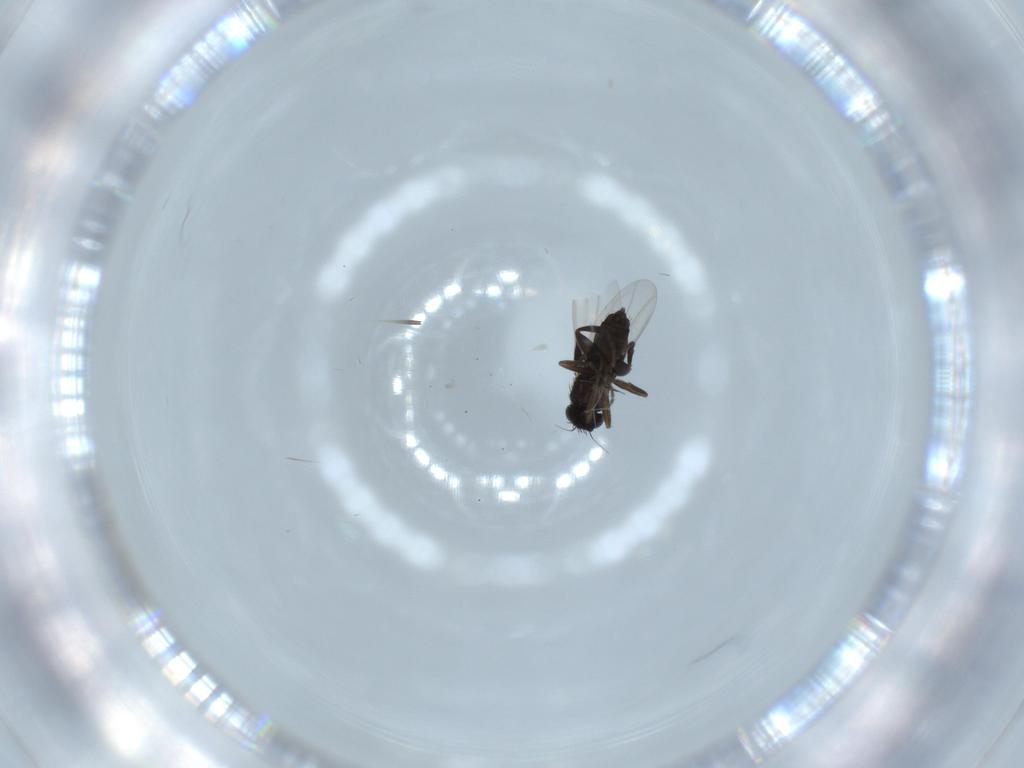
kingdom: Animalia
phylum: Arthropoda
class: Insecta
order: Diptera
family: Phoridae
